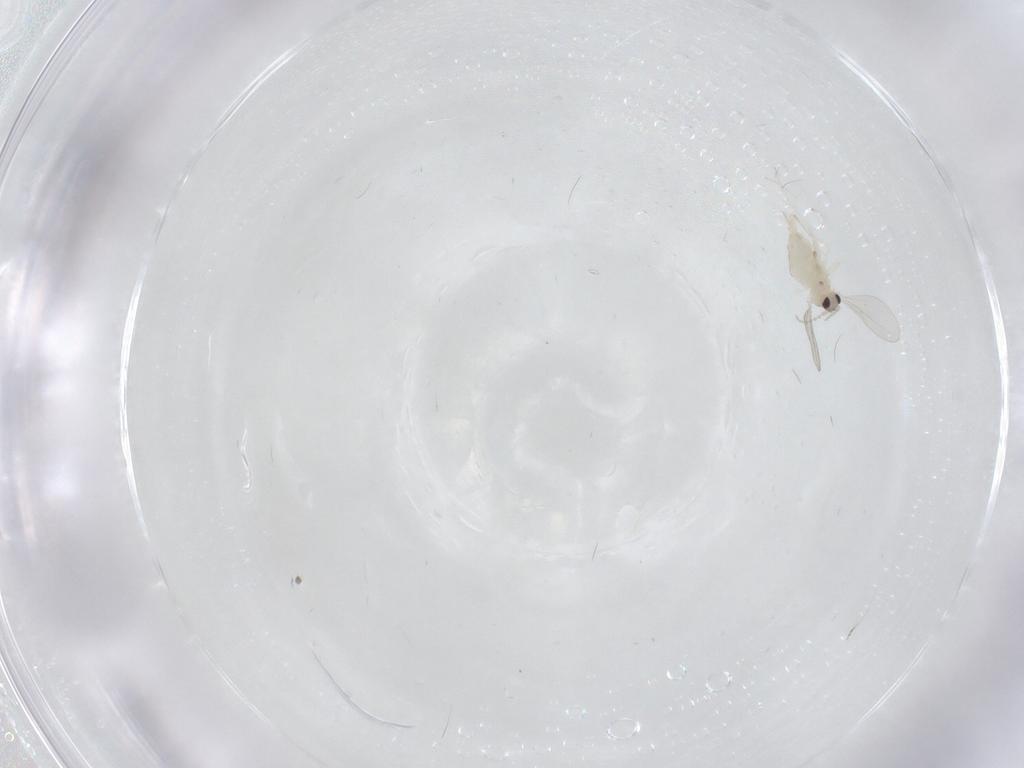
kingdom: Animalia
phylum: Arthropoda
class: Insecta
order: Diptera
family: Cecidomyiidae
